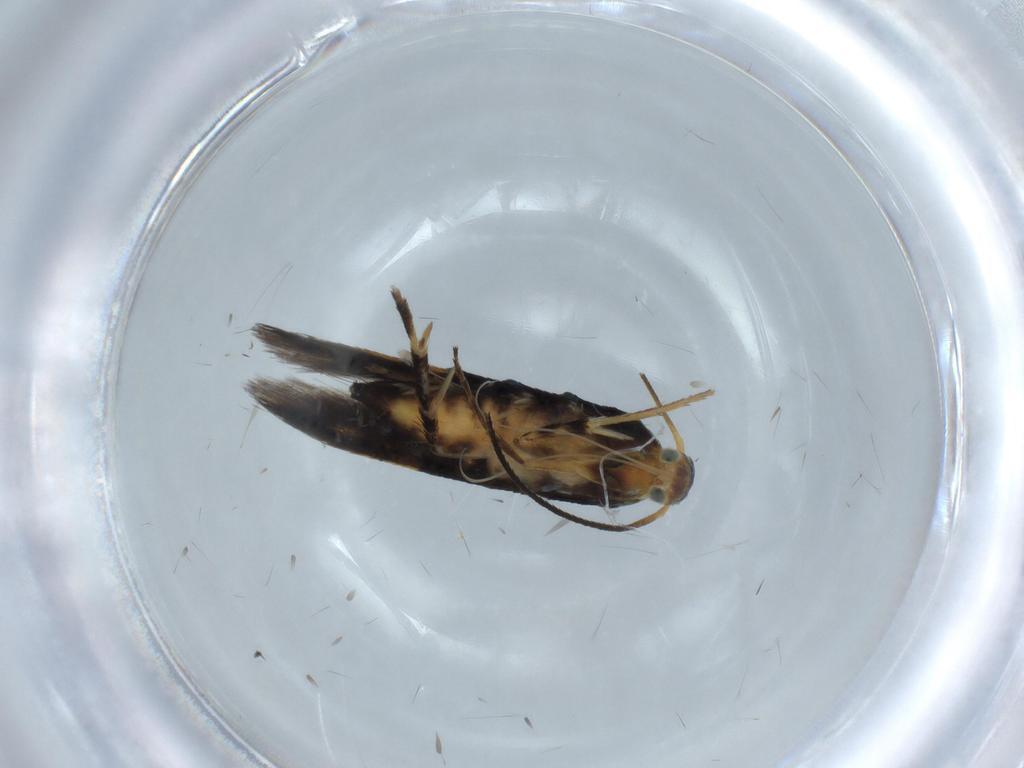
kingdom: Animalia
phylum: Arthropoda
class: Insecta
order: Lepidoptera
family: Heliodinidae
